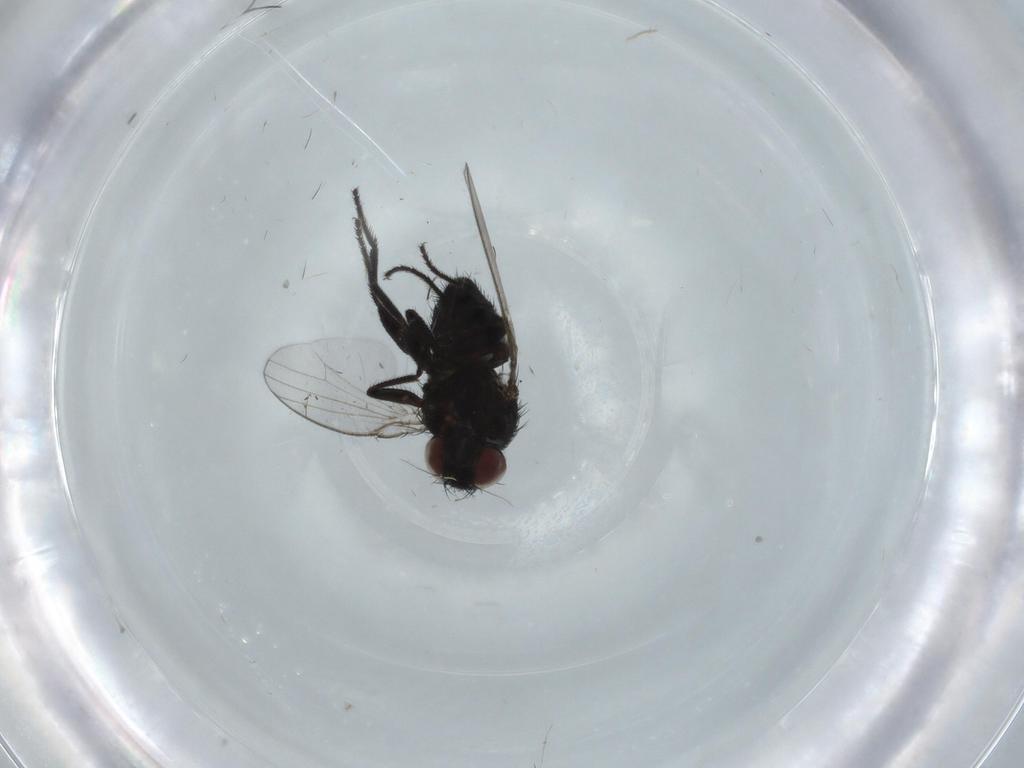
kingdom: Animalia
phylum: Arthropoda
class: Insecta
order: Diptera
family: Milichiidae
